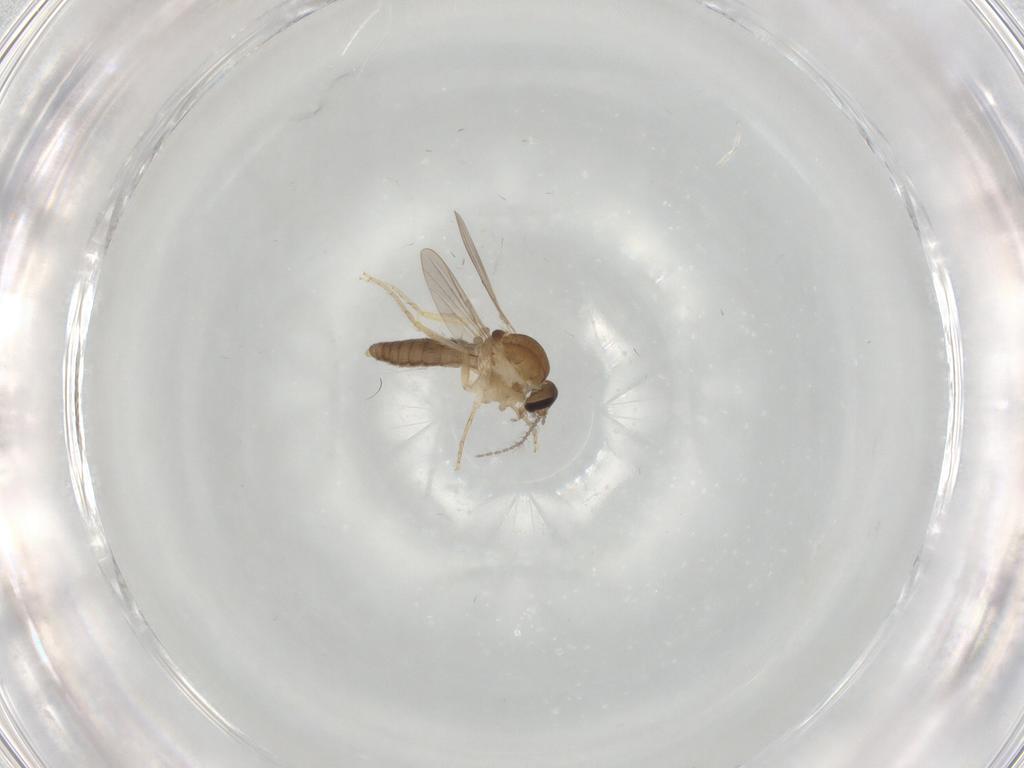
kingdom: Animalia
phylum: Arthropoda
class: Insecta
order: Diptera
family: Ceratopogonidae
